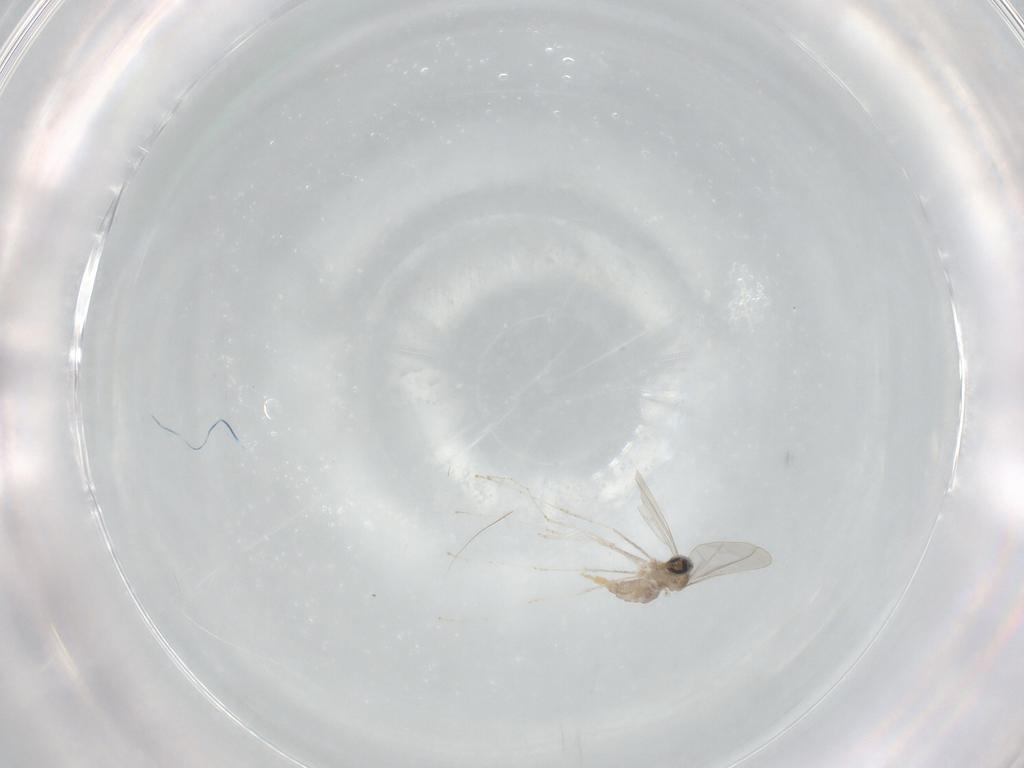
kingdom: Animalia
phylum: Arthropoda
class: Insecta
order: Diptera
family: Cecidomyiidae
